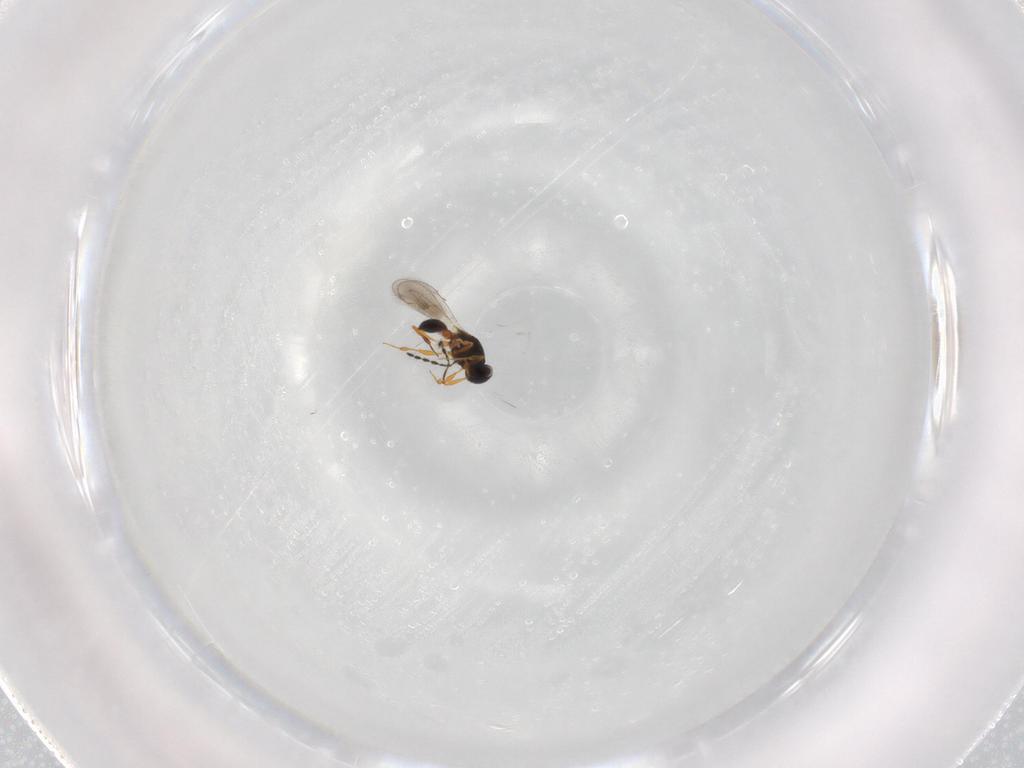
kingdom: Animalia
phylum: Arthropoda
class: Insecta
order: Hymenoptera
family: Platygastridae
